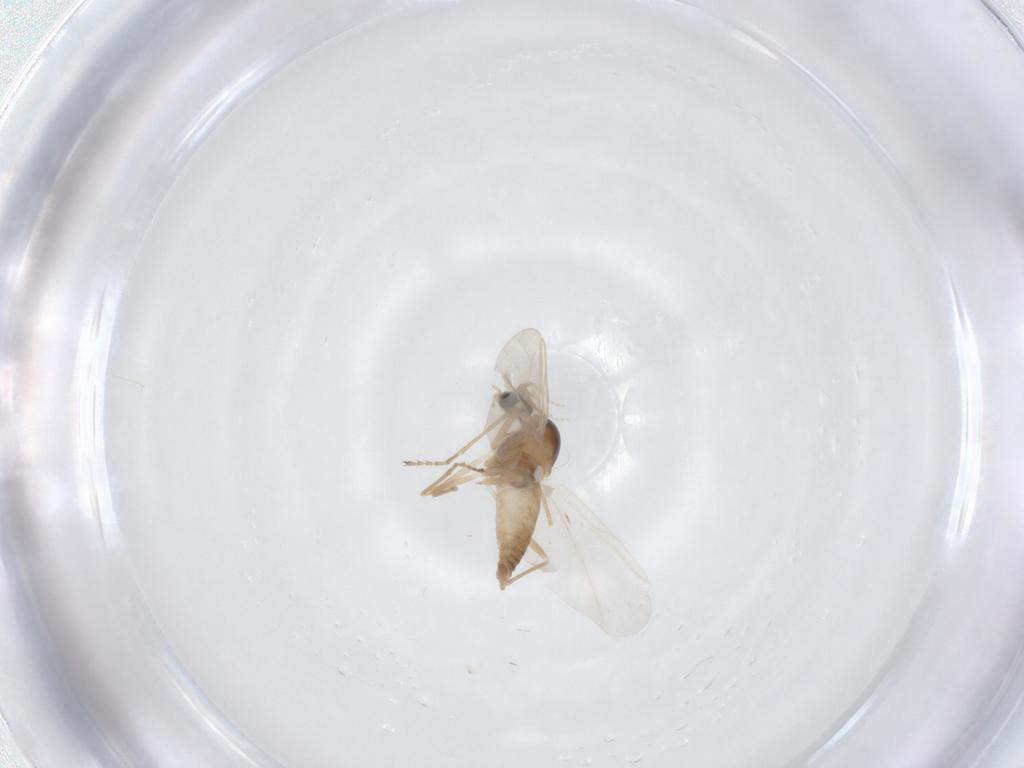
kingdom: Animalia
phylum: Arthropoda
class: Insecta
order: Diptera
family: Cecidomyiidae
